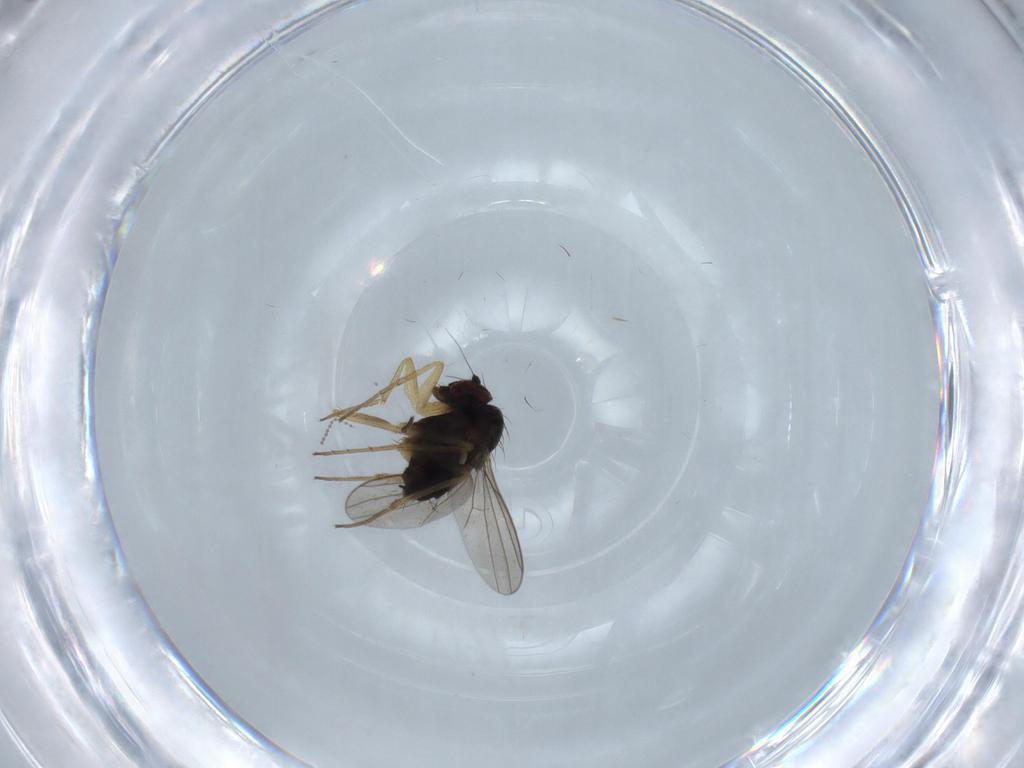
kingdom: Animalia
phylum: Arthropoda
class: Insecta
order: Diptera
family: Dolichopodidae
